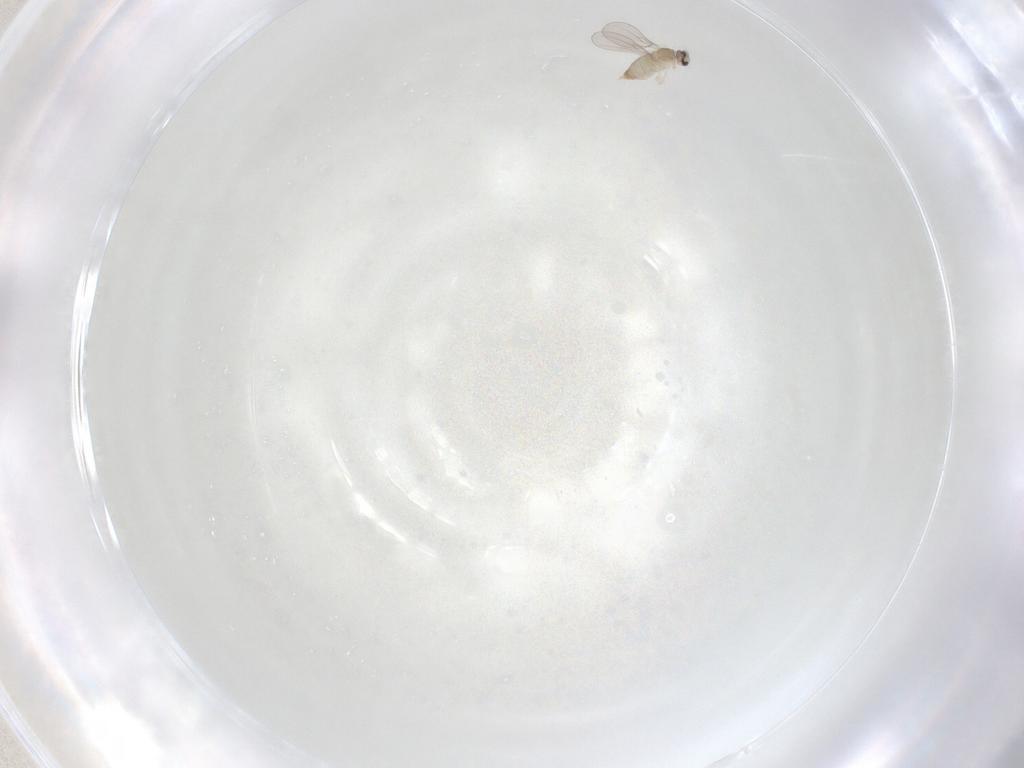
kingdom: Animalia
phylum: Arthropoda
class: Insecta
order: Diptera
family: Cecidomyiidae
